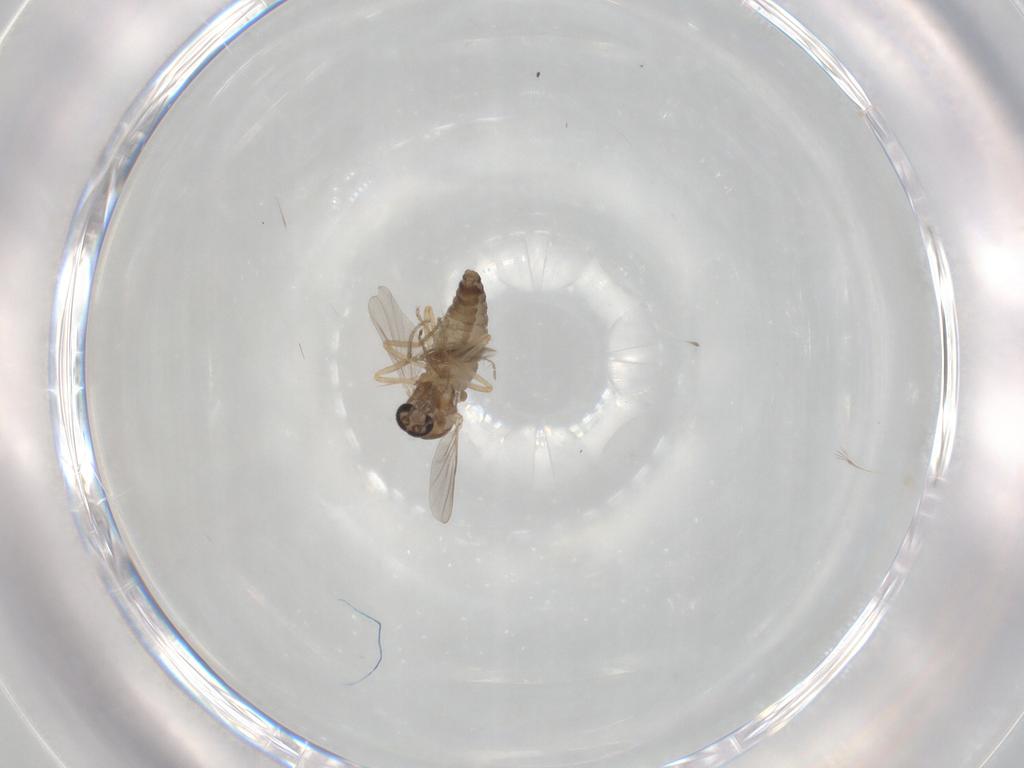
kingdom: Animalia
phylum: Arthropoda
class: Insecta
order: Diptera
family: Ceratopogonidae
